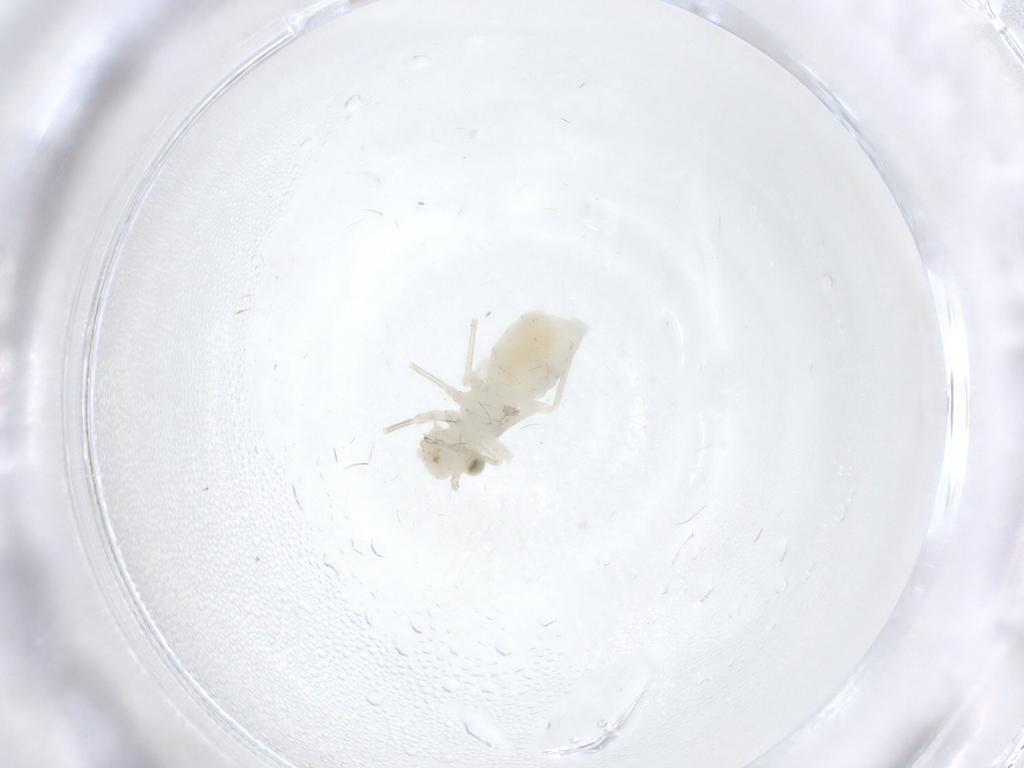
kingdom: Animalia
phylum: Arthropoda
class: Insecta
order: Psocodea
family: Caeciliusidae
